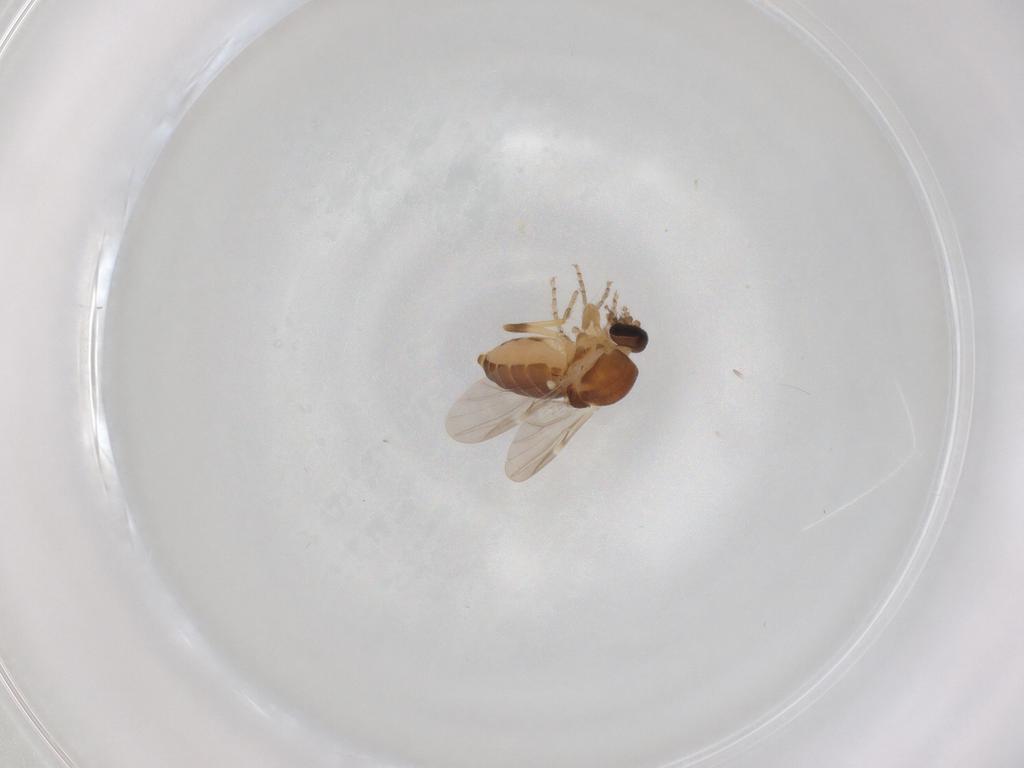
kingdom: Animalia
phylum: Arthropoda
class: Insecta
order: Diptera
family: Ceratopogonidae
